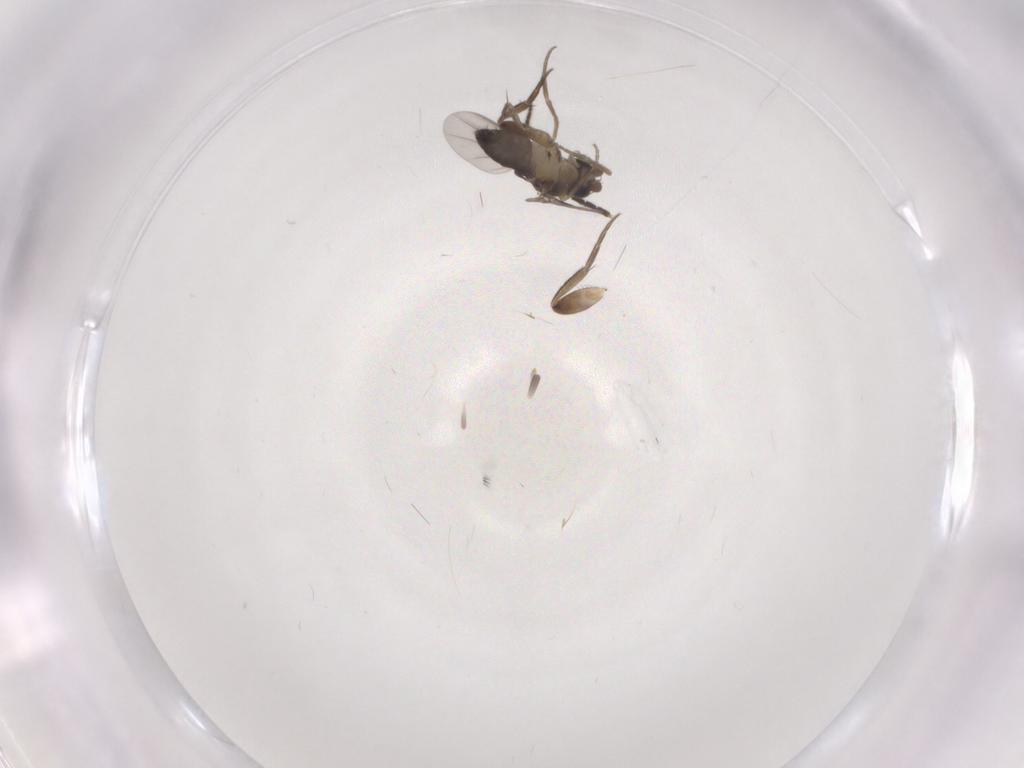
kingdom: Animalia
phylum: Arthropoda
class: Insecta
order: Diptera
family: Phoridae
